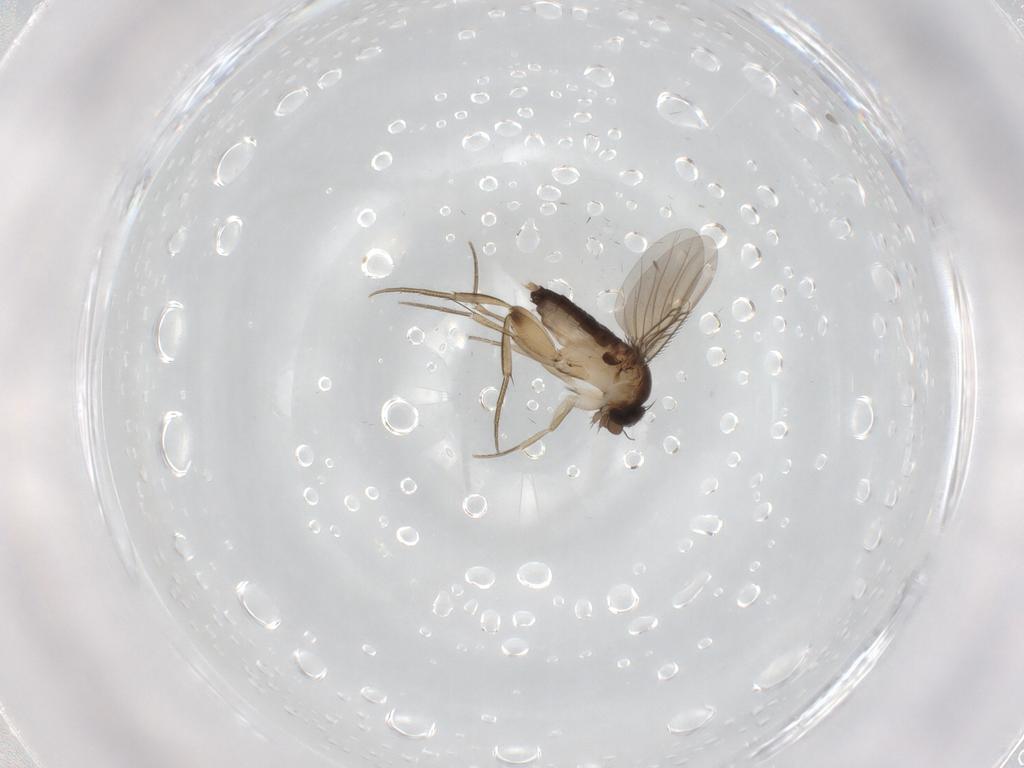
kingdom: Animalia
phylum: Arthropoda
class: Insecta
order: Diptera
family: Phoridae
